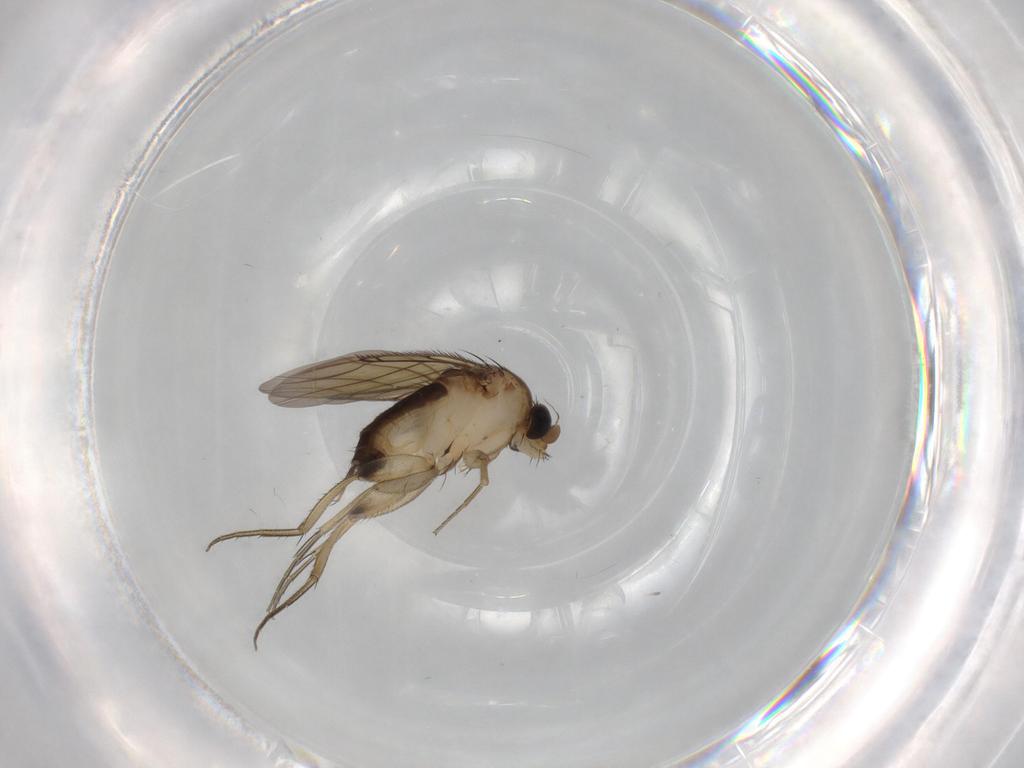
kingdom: Animalia
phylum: Arthropoda
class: Insecta
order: Diptera
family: Phoridae
